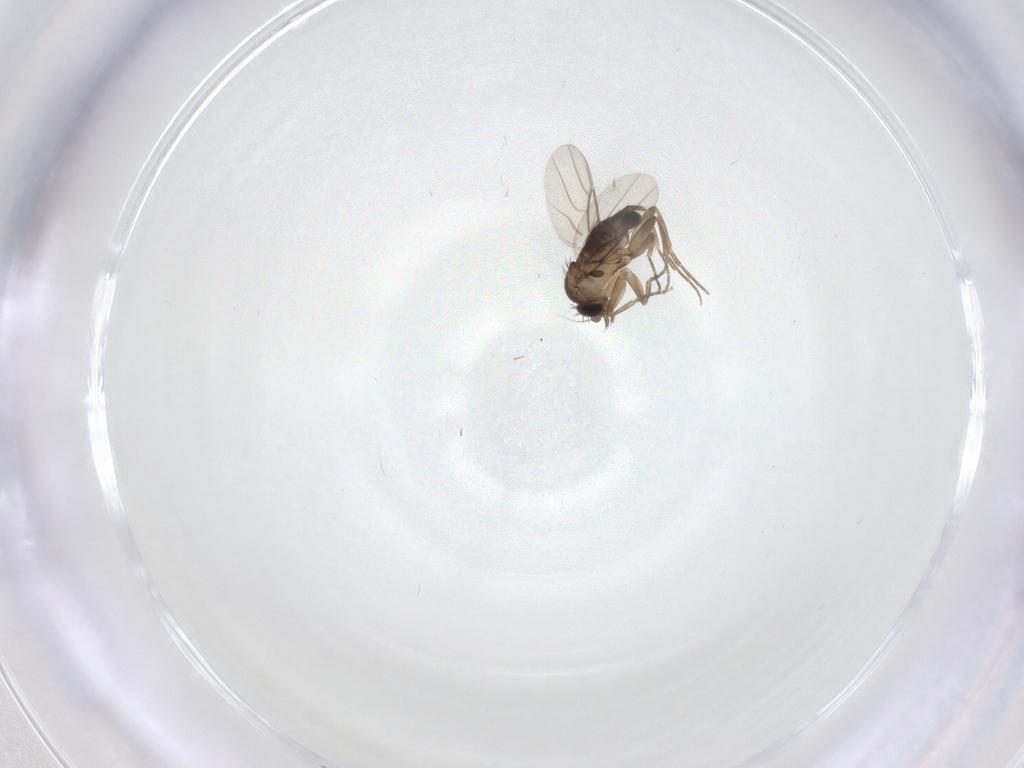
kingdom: Animalia
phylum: Arthropoda
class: Insecta
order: Diptera
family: Phoridae
